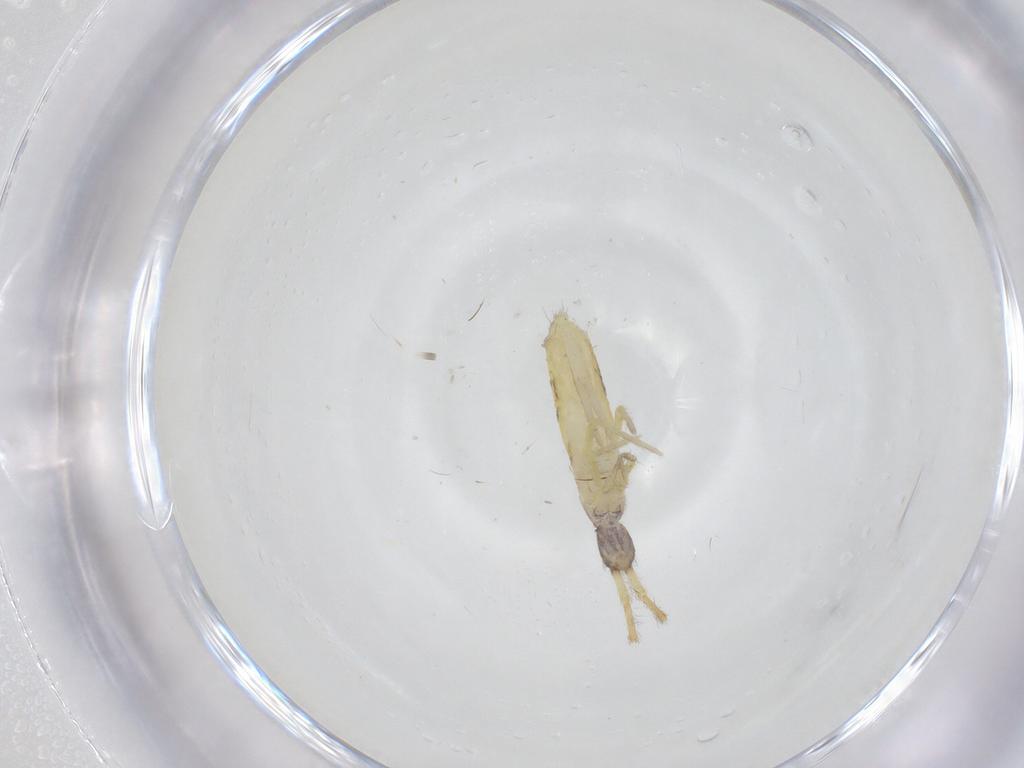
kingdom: Animalia
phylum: Arthropoda
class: Collembola
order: Entomobryomorpha
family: Entomobryidae
